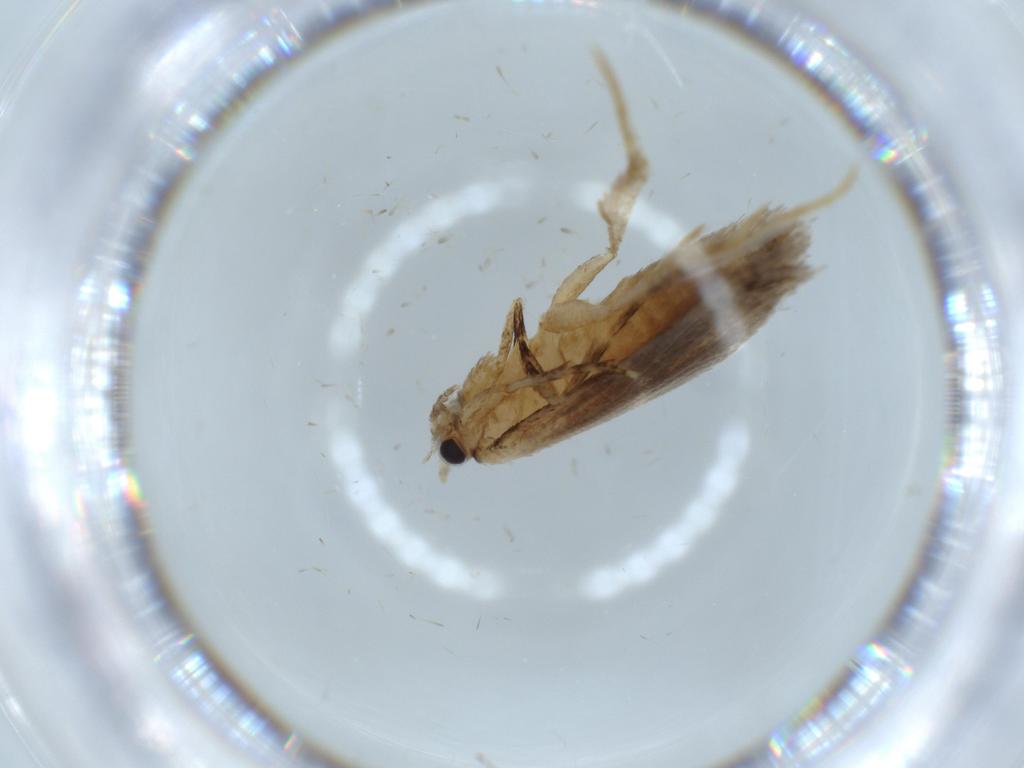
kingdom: Animalia
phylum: Arthropoda
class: Insecta
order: Lepidoptera
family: Tineidae
